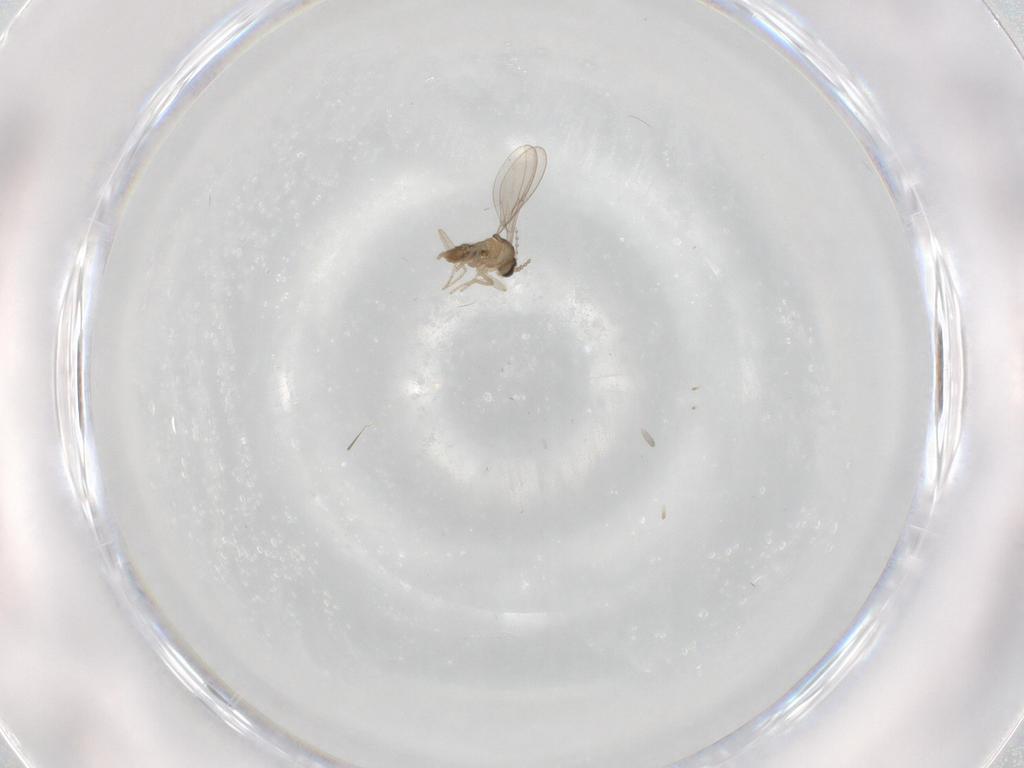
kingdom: Animalia
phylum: Arthropoda
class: Insecta
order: Diptera
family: Cecidomyiidae
